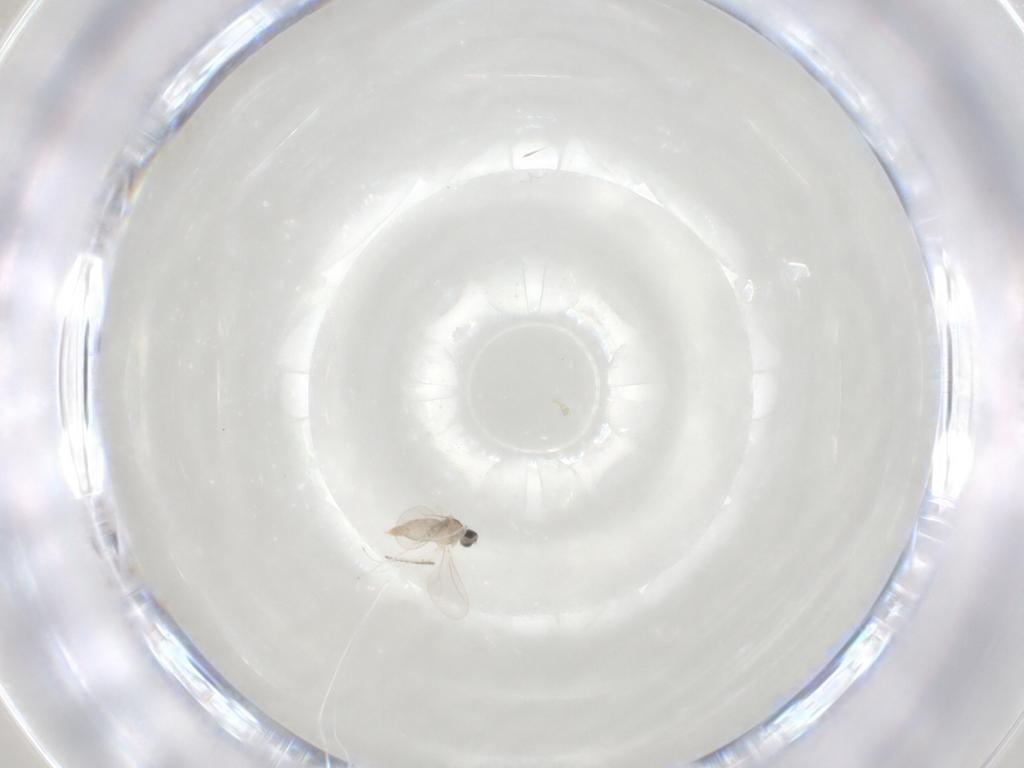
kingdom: Animalia
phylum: Arthropoda
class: Insecta
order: Diptera
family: Cecidomyiidae
